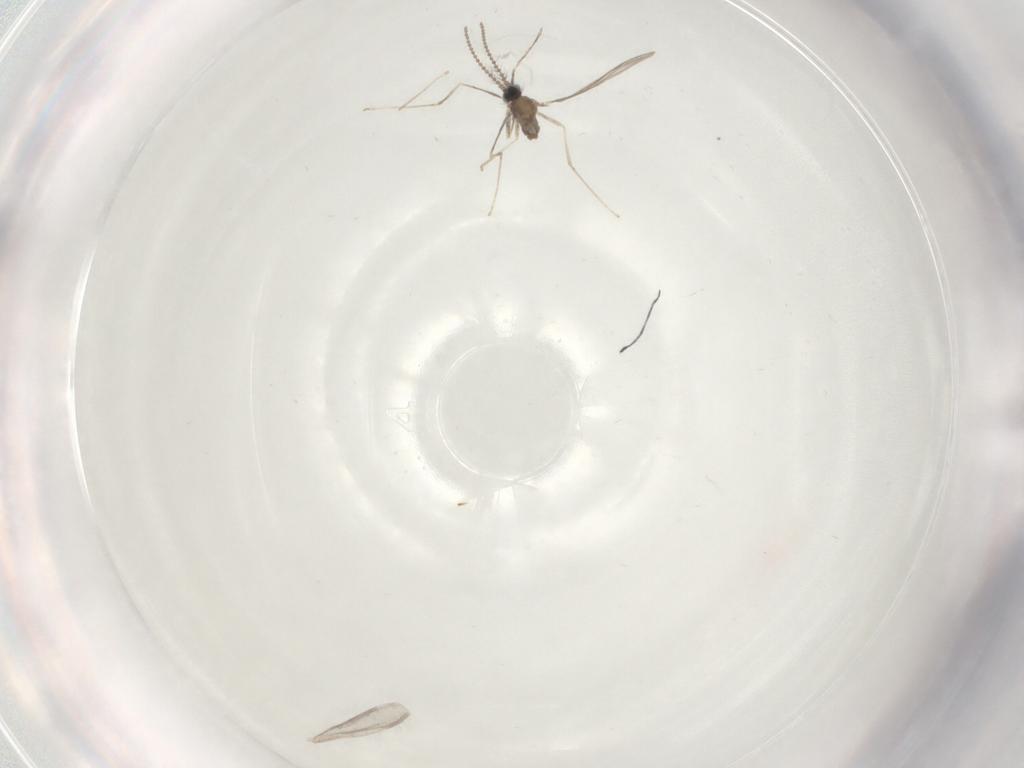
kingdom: Animalia
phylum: Arthropoda
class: Insecta
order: Diptera
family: Cecidomyiidae
